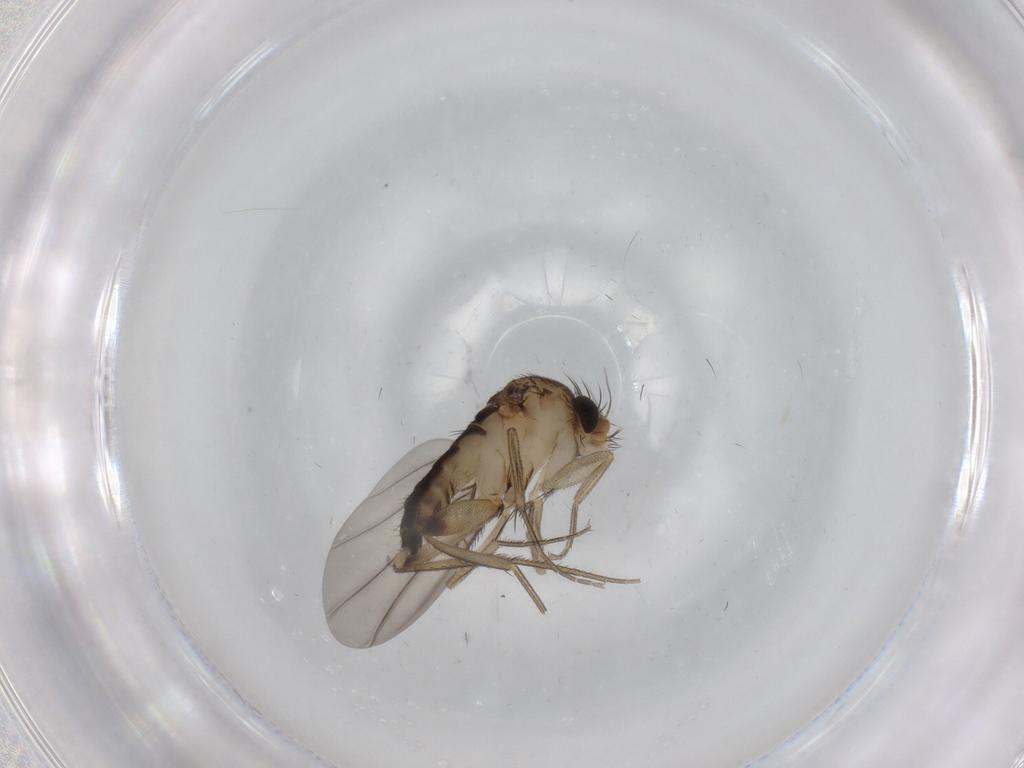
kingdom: Animalia
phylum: Arthropoda
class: Insecta
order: Diptera
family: Phoridae
